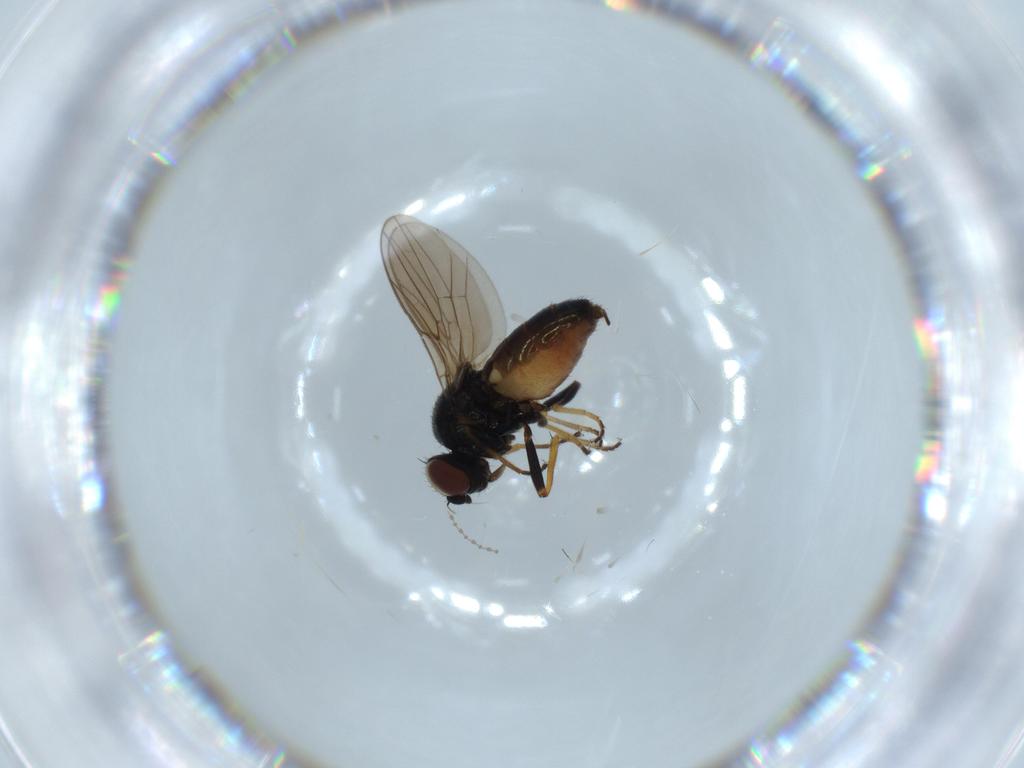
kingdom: Animalia
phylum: Arthropoda
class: Insecta
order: Diptera
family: Chloropidae
